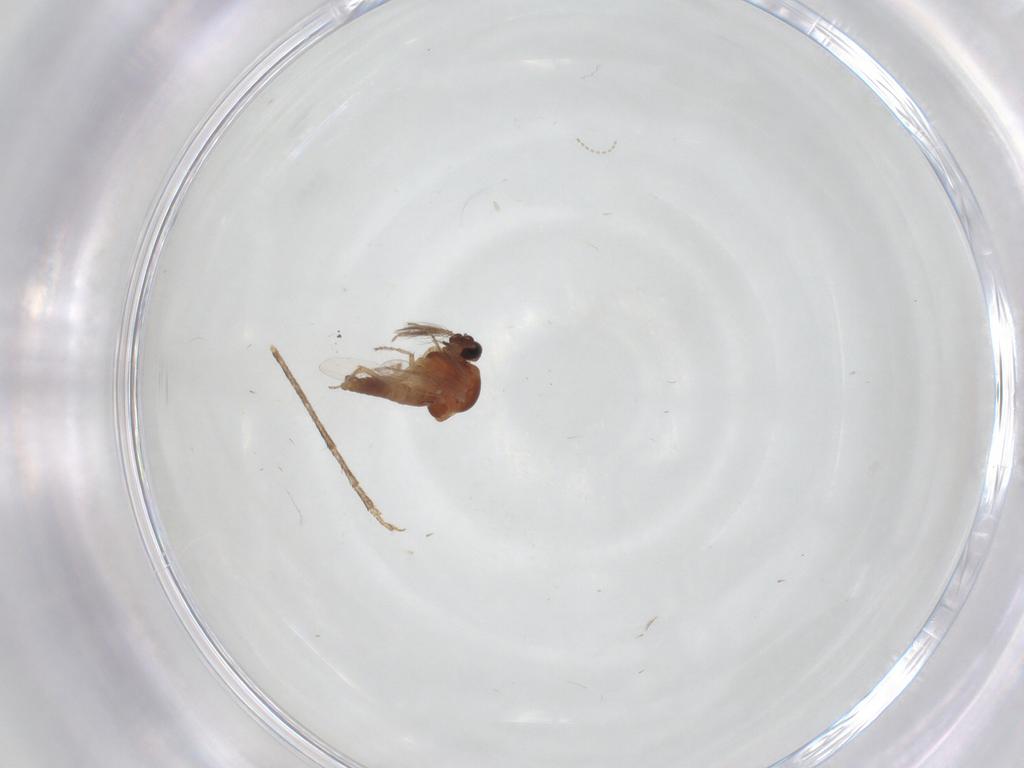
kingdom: Animalia
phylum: Arthropoda
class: Insecta
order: Diptera
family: Ceratopogonidae
